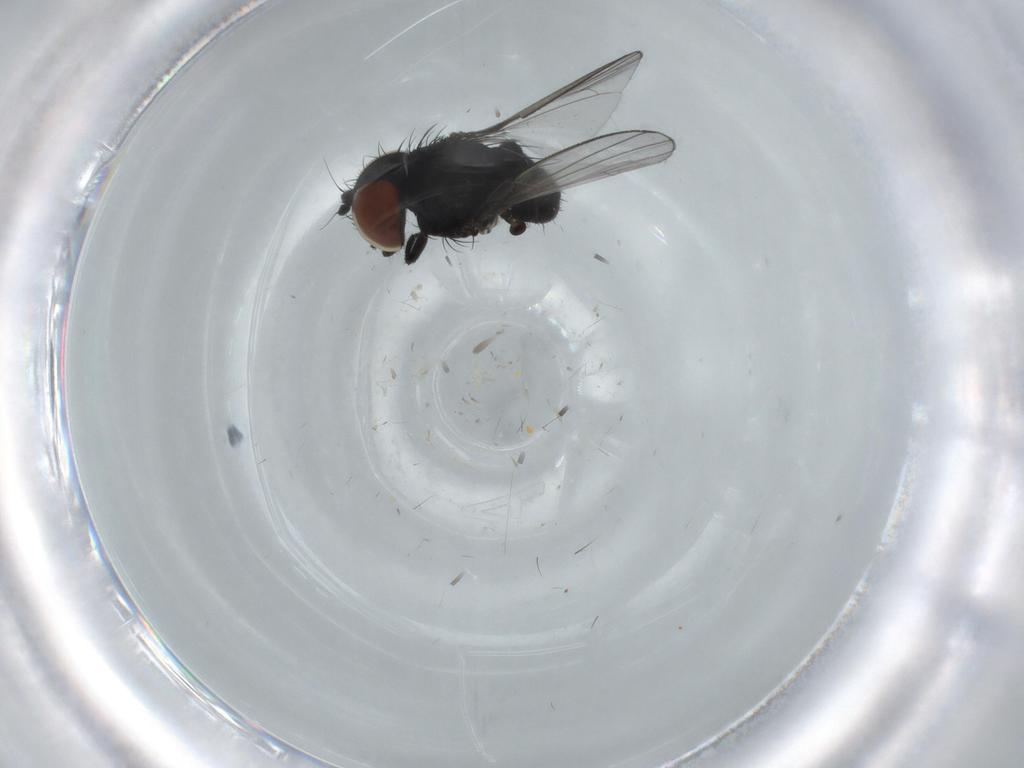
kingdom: Animalia
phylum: Arthropoda
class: Insecta
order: Diptera
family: Milichiidae
